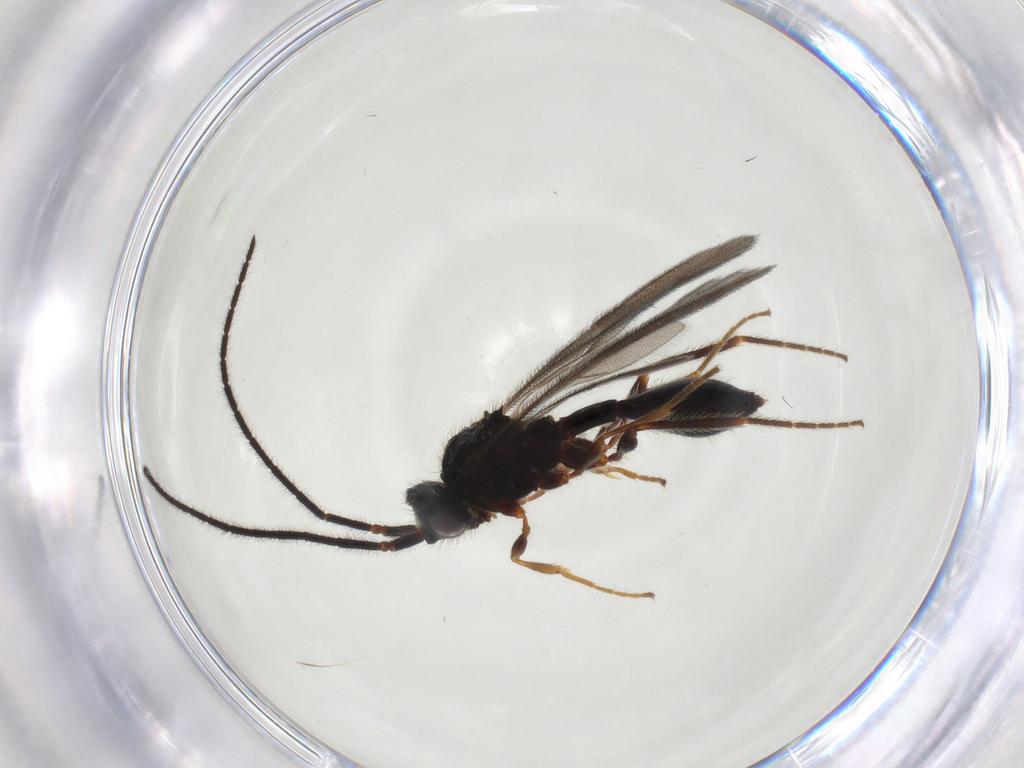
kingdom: Animalia
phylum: Arthropoda
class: Insecta
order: Hymenoptera
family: Diapriidae
